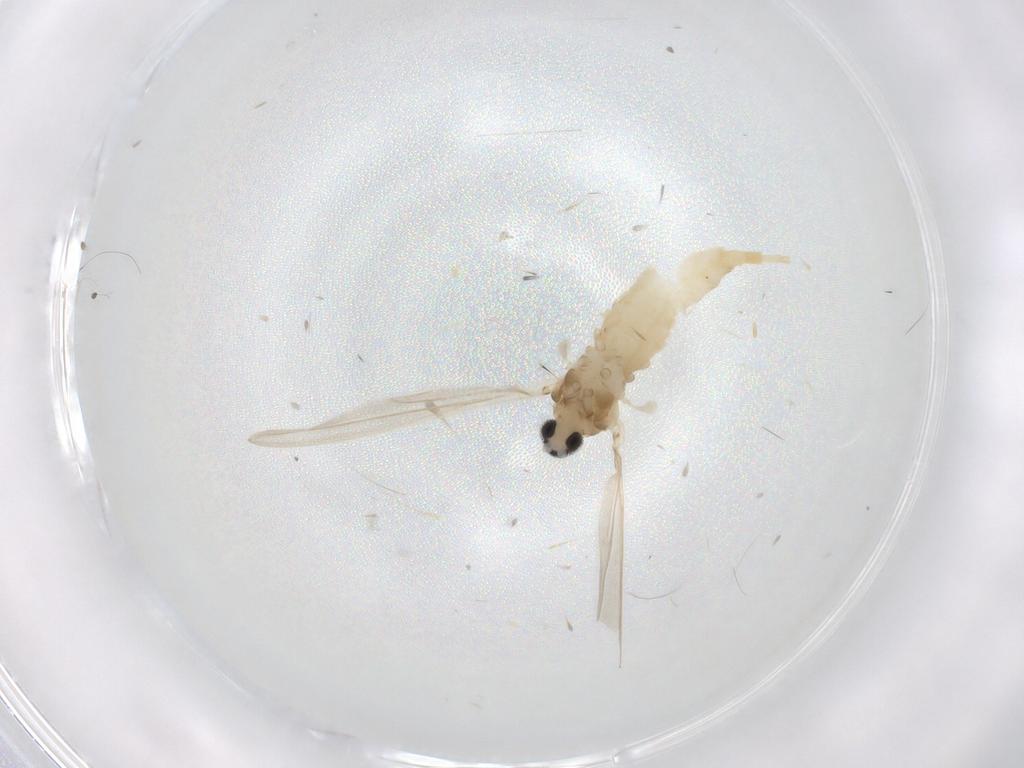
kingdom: Animalia
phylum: Arthropoda
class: Insecta
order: Diptera
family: Cecidomyiidae
